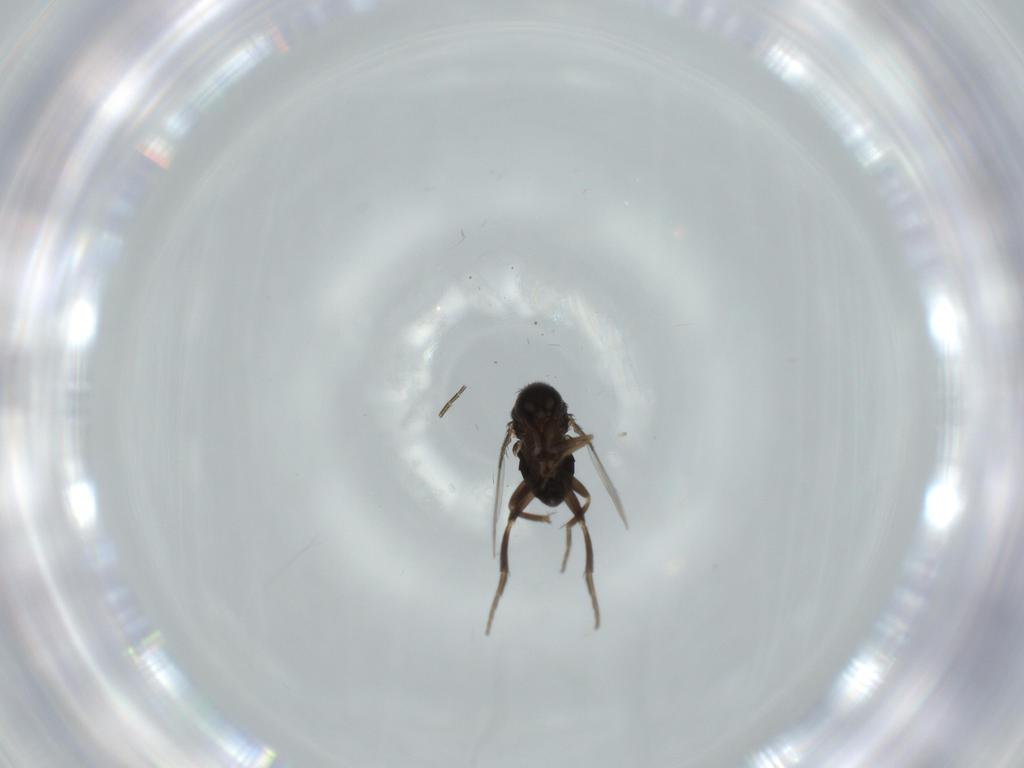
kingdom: Animalia
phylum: Arthropoda
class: Insecta
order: Diptera
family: Phoridae
